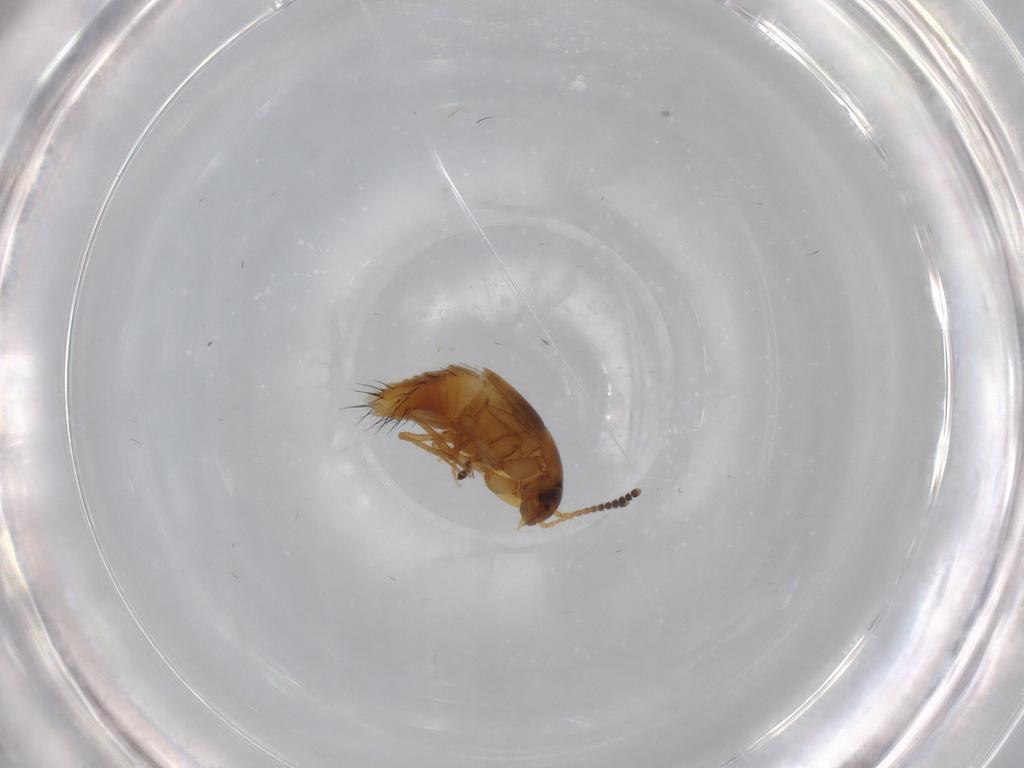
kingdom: Animalia
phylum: Arthropoda
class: Insecta
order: Coleoptera
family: Staphylinidae
